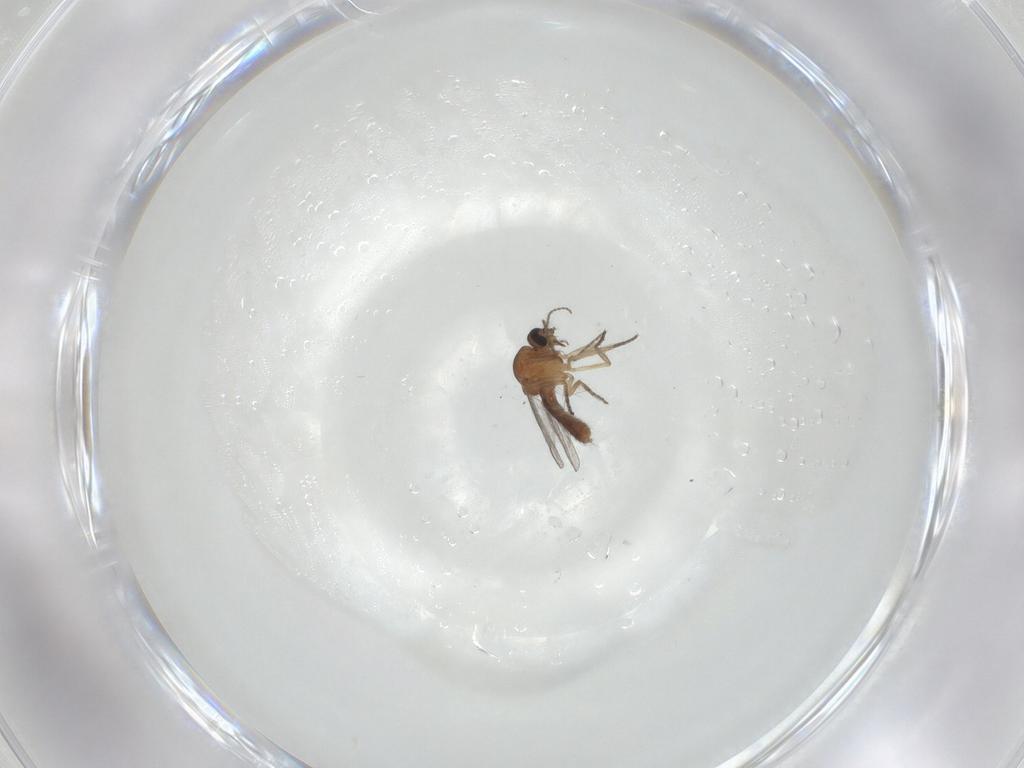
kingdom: Animalia
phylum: Arthropoda
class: Insecta
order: Diptera
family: Ceratopogonidae
